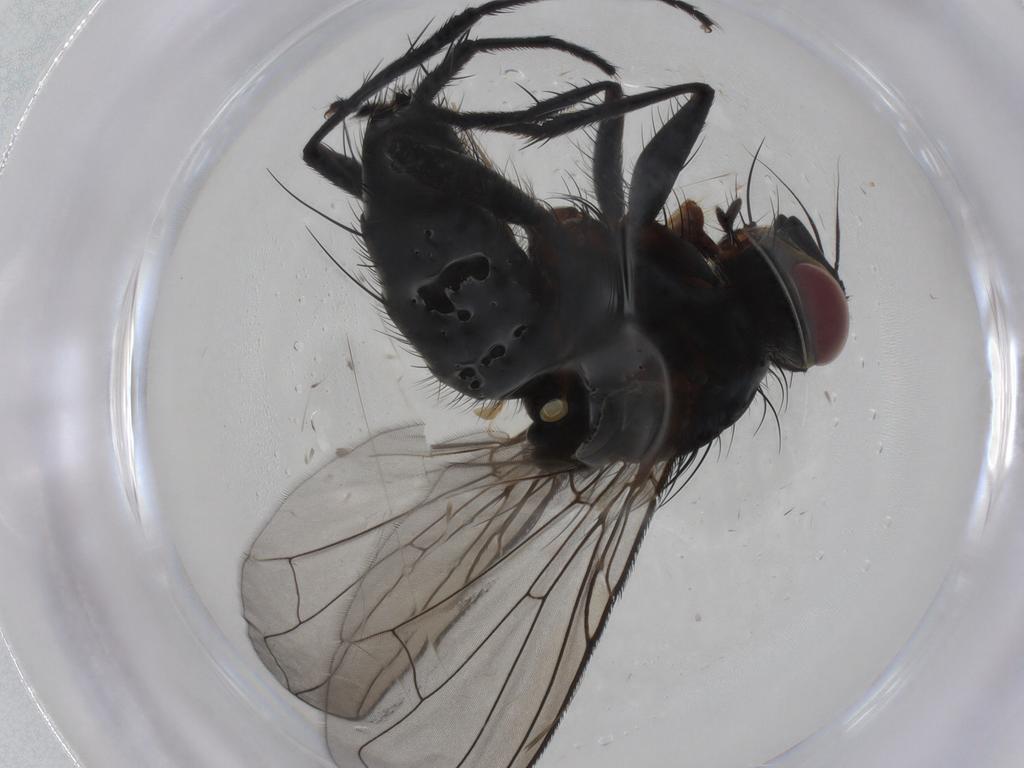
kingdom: Animalia
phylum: Arthropoda
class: Insecta
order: Diptera
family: Chironomidae
